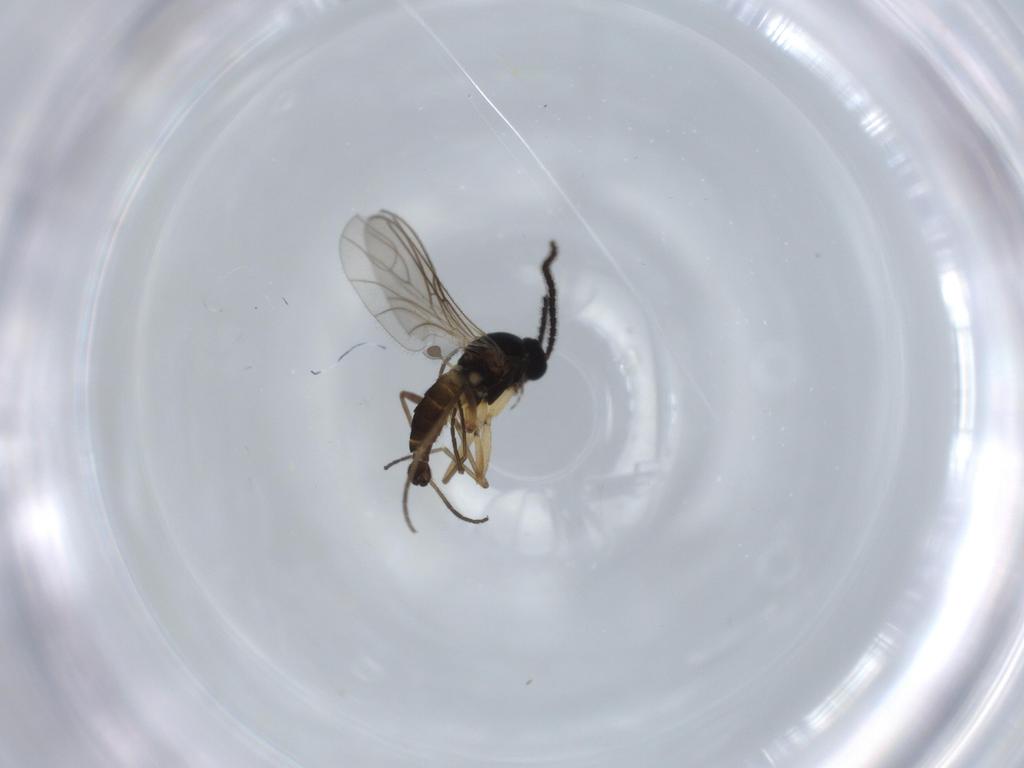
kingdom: Animalia
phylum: Arthropoda
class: Insecta
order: Diptera
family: Sciaridae
